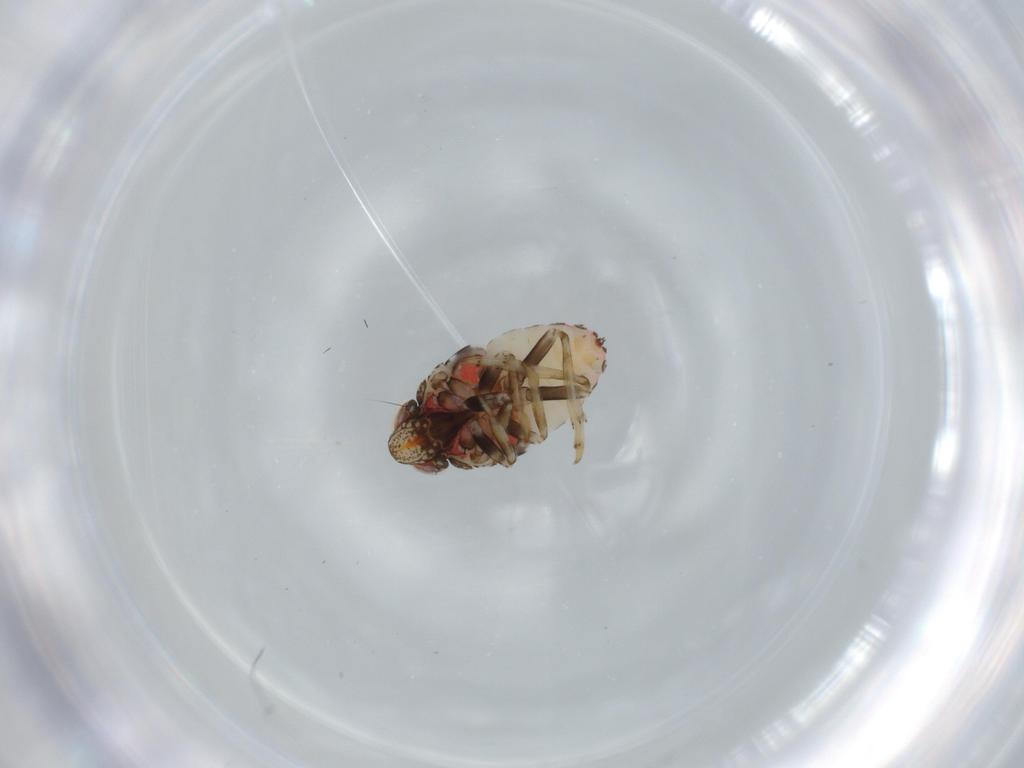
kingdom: Animalia
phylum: Arthropoda
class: Insecta
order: Hemiptera
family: Issidae
